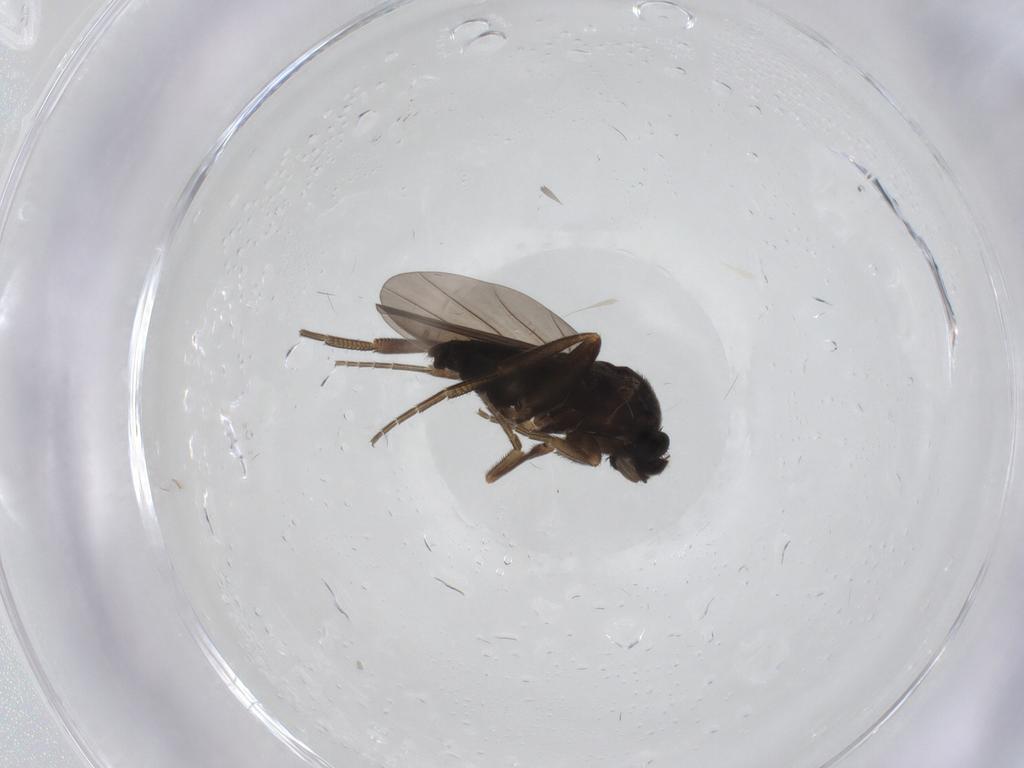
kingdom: Animalia
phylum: Arthropoda
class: Insecta
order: Diptera
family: Phoridae
